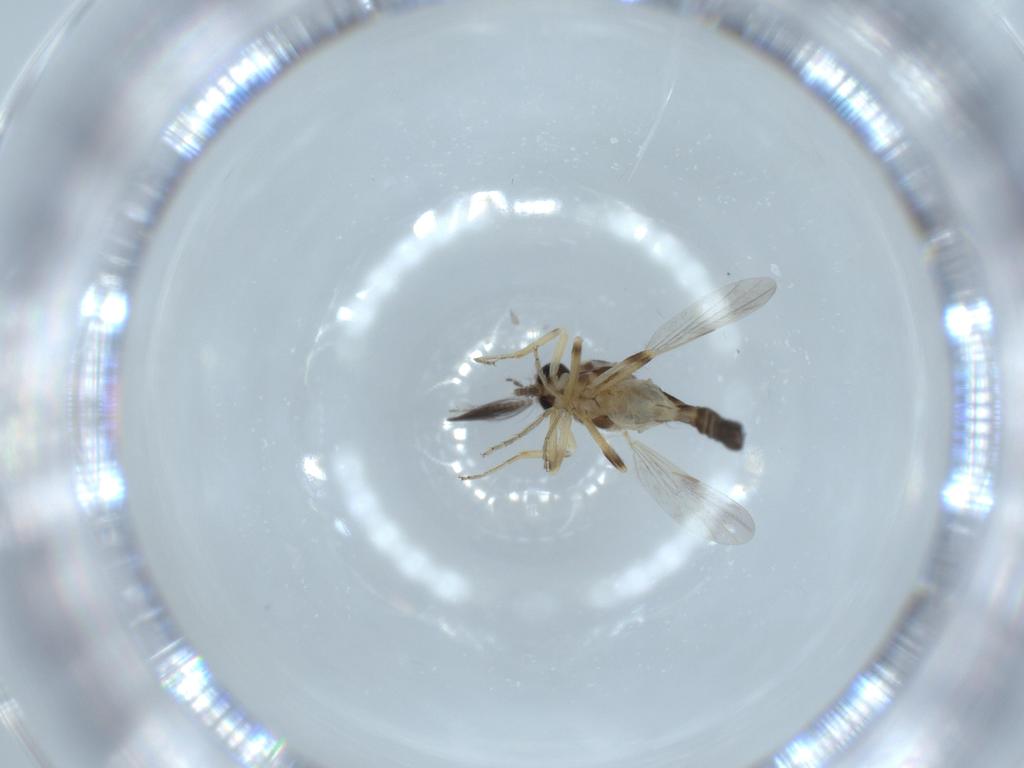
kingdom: Animalia
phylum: Arthropoda
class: Insecta
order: Diptera
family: Ceratopogonidae
